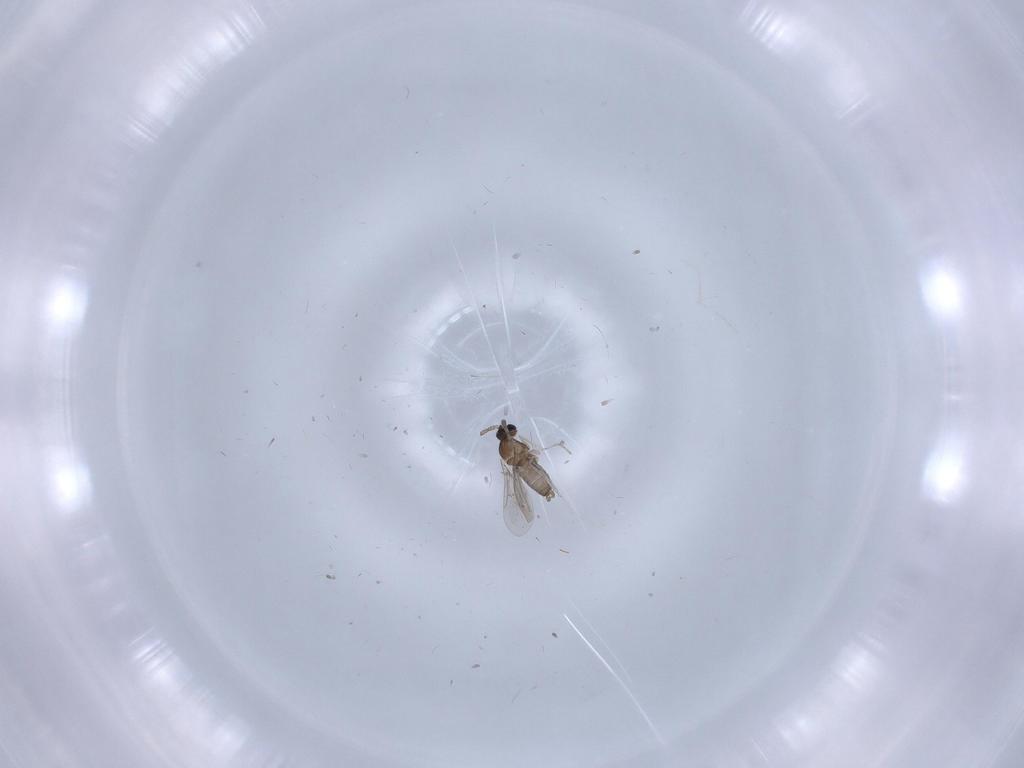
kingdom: Animalia
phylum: Arthropoda
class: Insecta
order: Diptera
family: Cecidomyiidae
